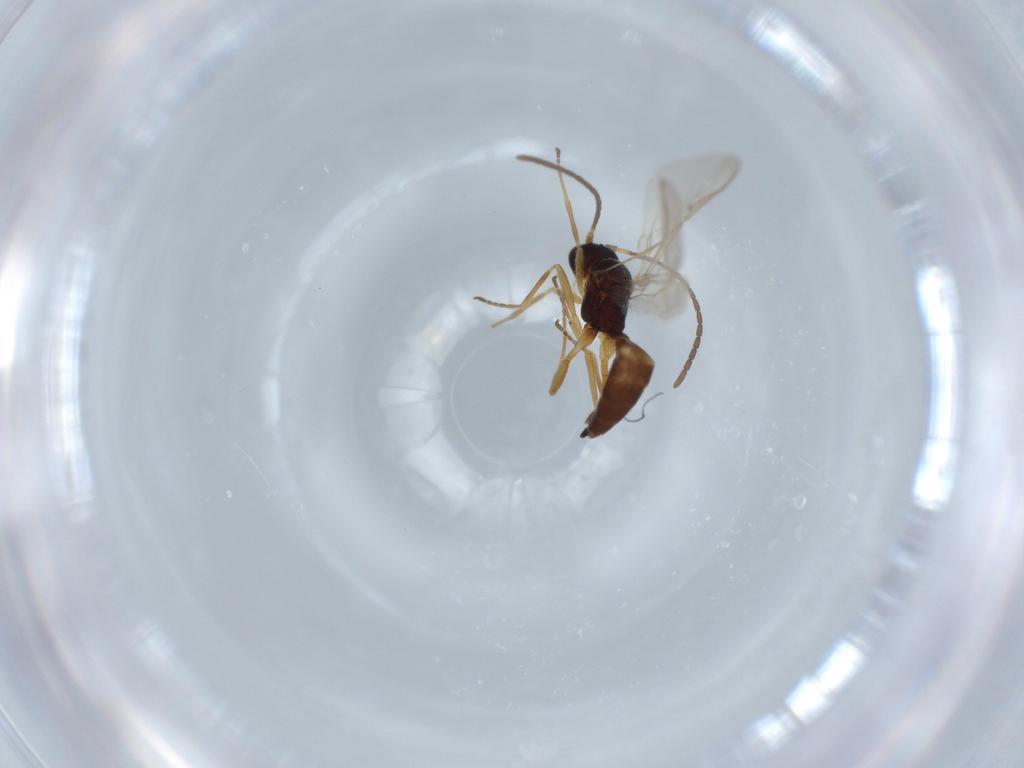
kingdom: Animalia
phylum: Arthropoda
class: Insecta
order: Hymenoptera
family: Braconidae
